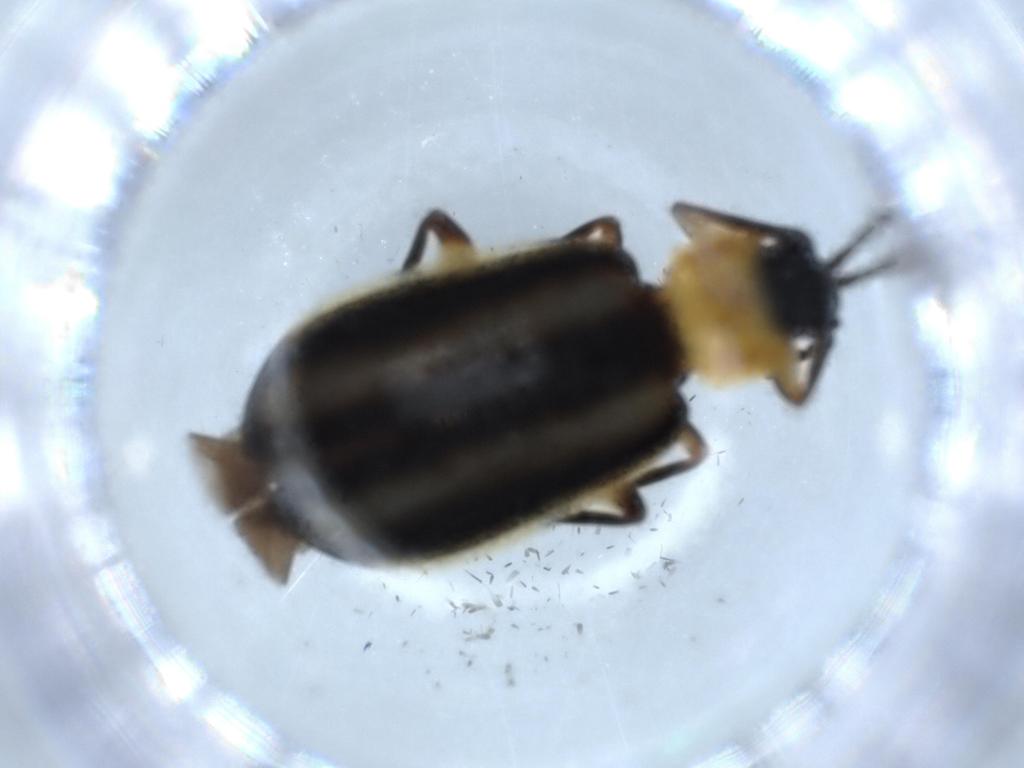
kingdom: Animalia
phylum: Arthropoda
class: Insecta
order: Coleoptera
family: Chrysomelidae
